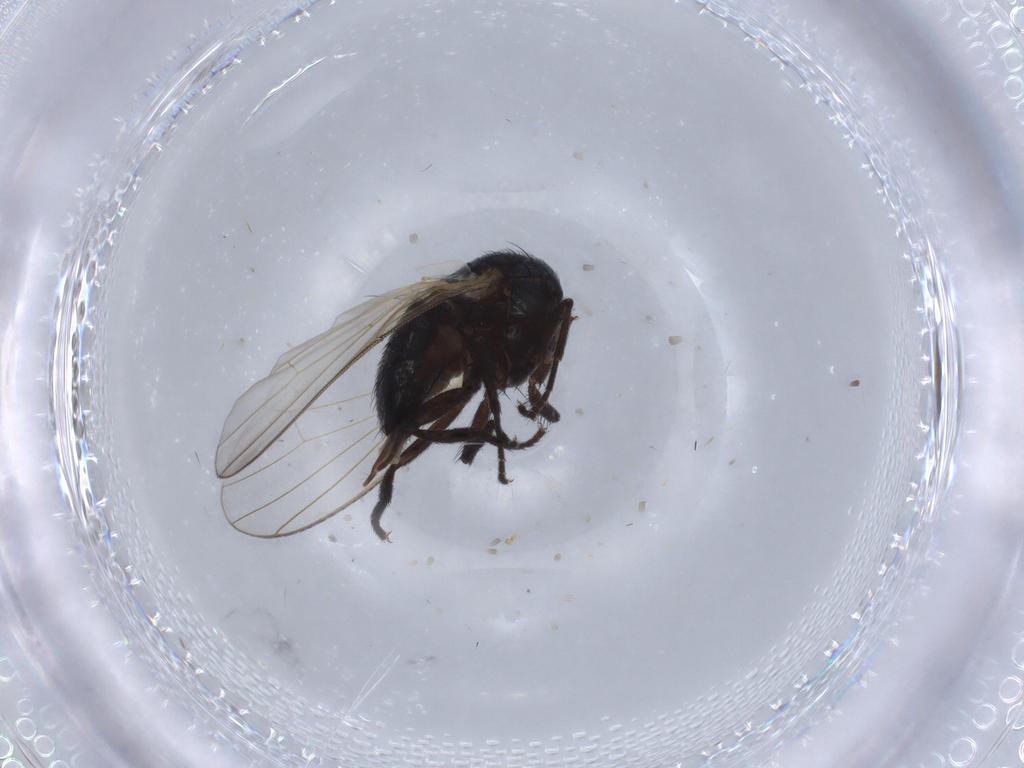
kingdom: Animalia
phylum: Arthropoda
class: Insecta
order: Diptera
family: Lonchaeidae
